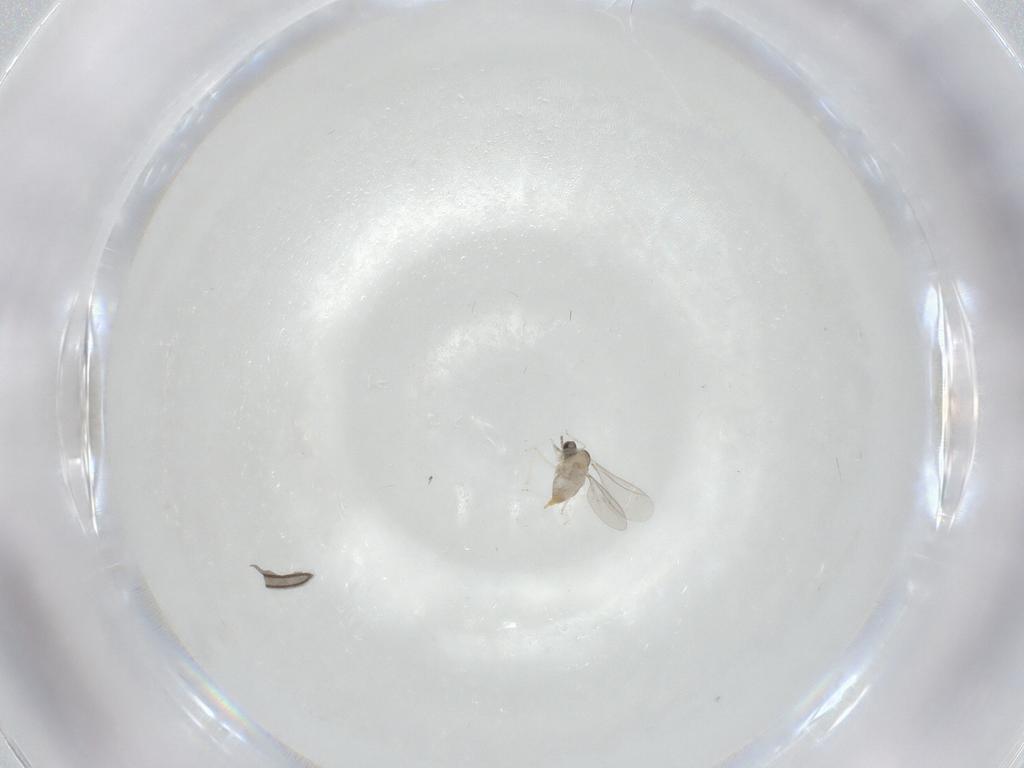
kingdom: Animalia
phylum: Arthropoda
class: Insecta
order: Diptera
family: Cecidomyiidae
